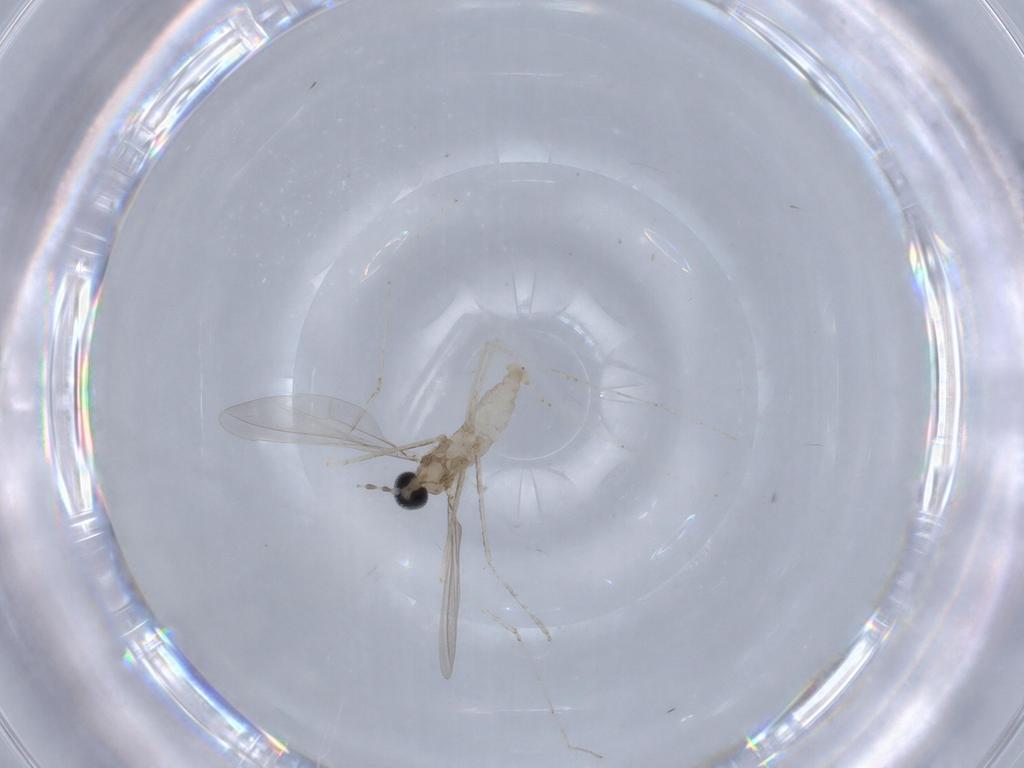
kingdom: Animalia
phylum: Arthropoda
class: Insecta
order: Diptera
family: Cecidomyiidae
